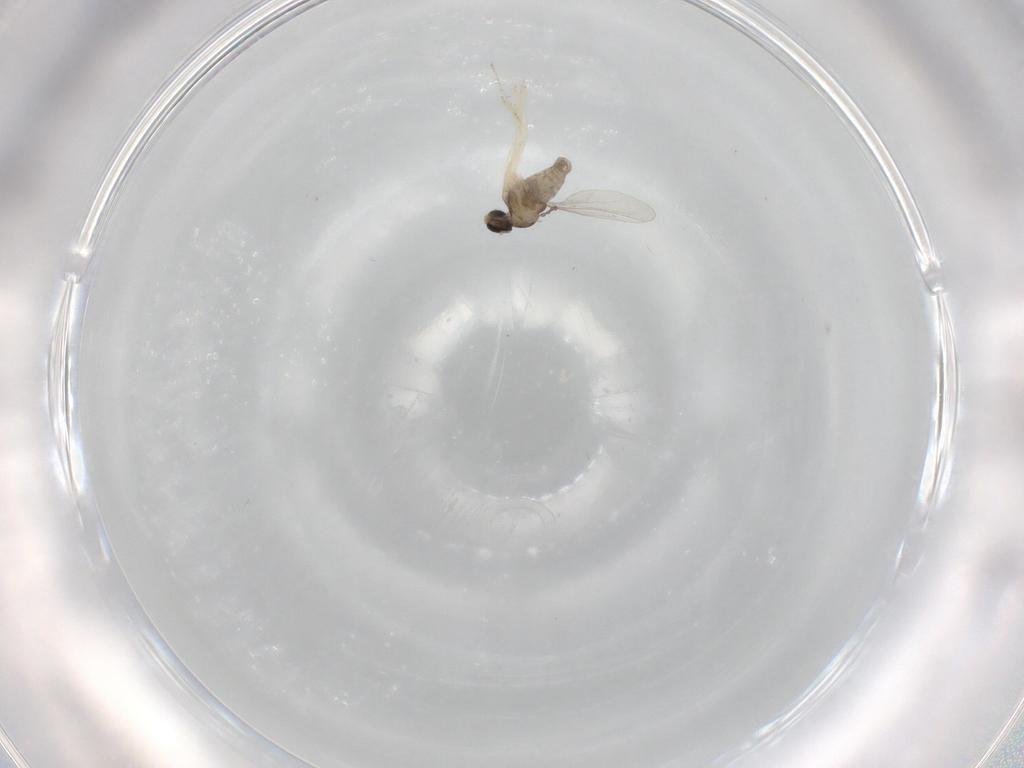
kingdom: Animalia
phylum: Arthropoda
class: Insecta
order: Diptera
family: Cecidomyiidae
